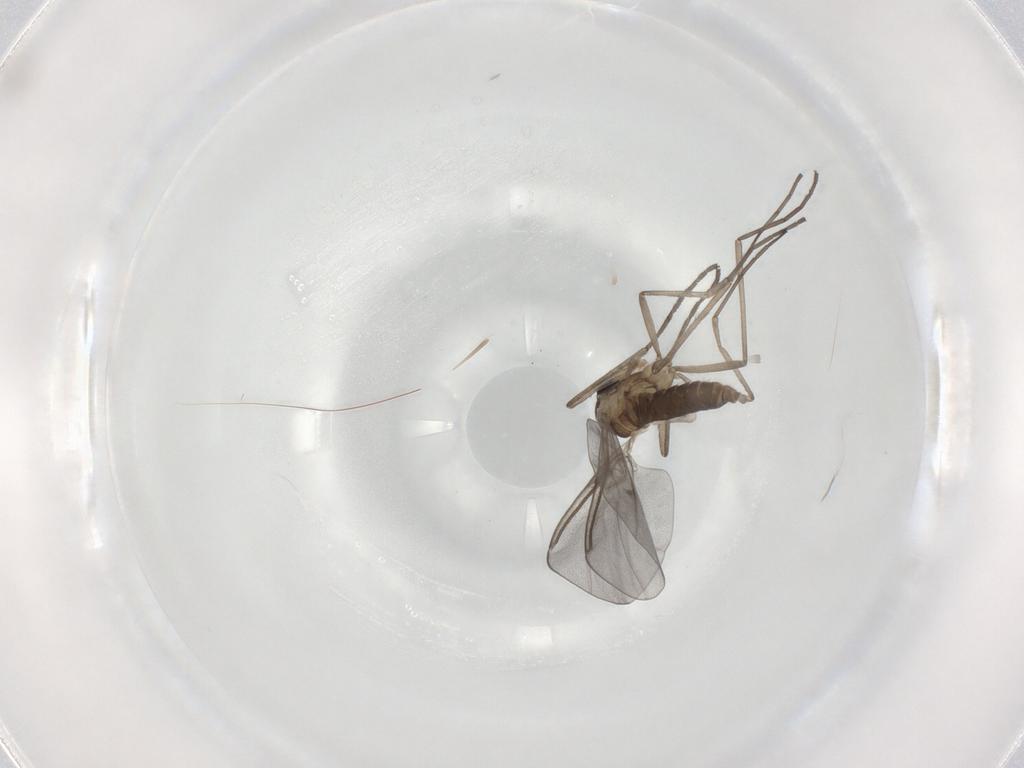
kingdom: Animalia
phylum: Arthropoda
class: Insecta
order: Diptera
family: Cecidomyiidae
